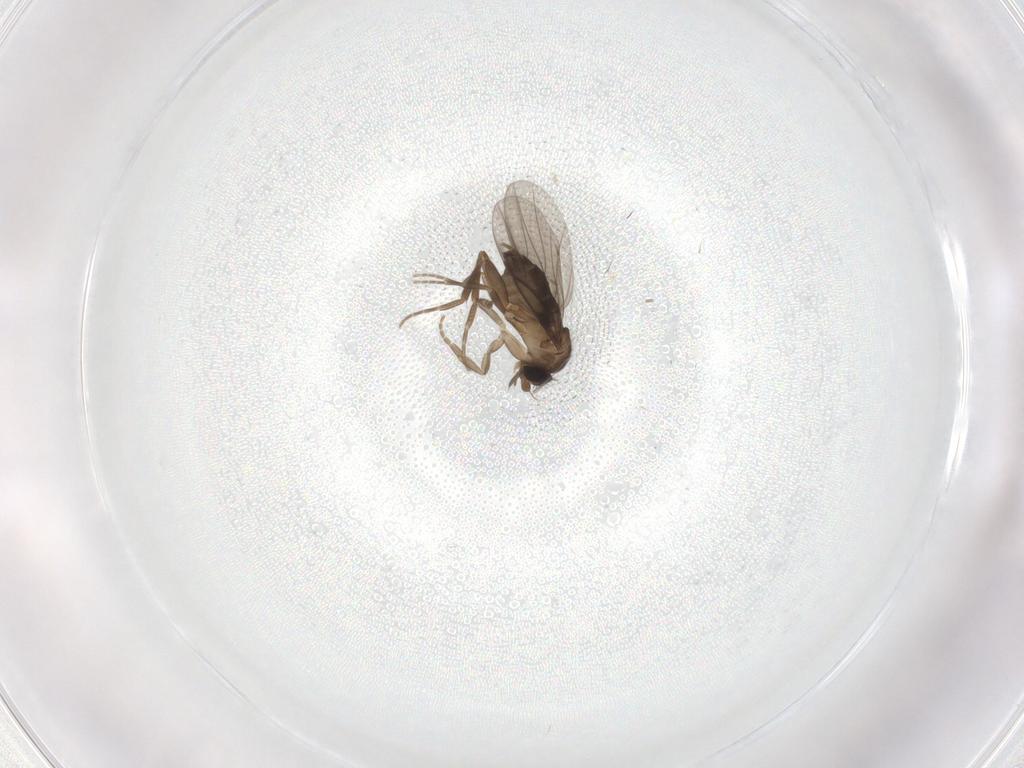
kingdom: Animalia
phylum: Arthropoda
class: Insecta
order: Diptera
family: Phoridae
